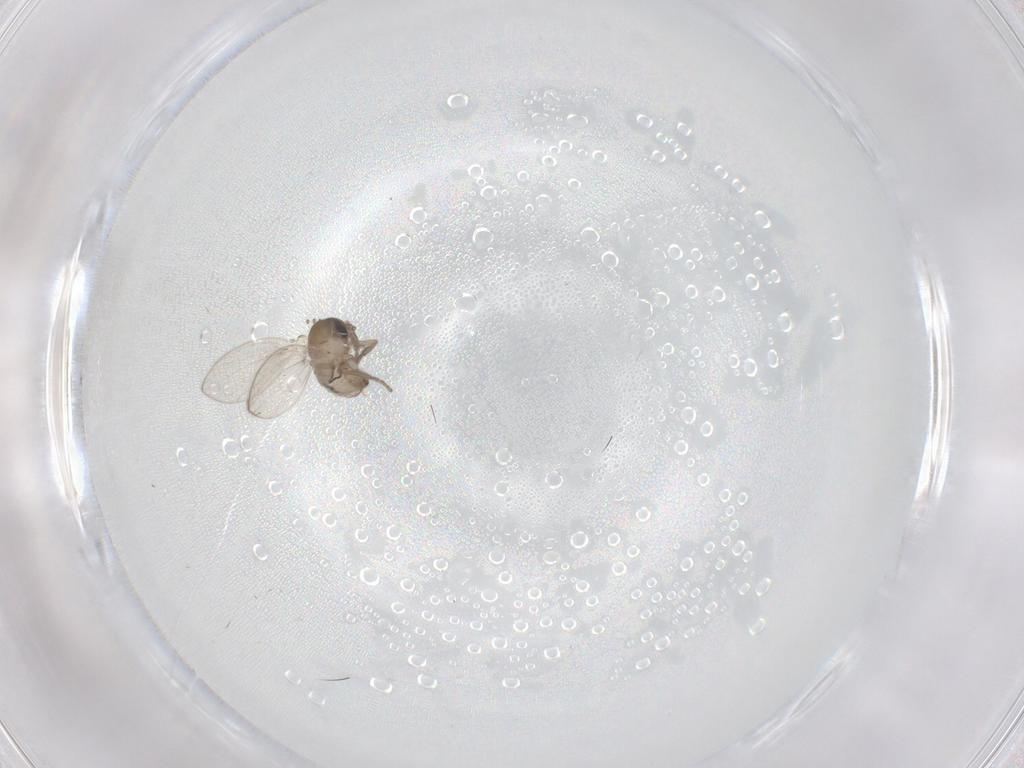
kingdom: Animalia
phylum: Arthropoda
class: Insecta
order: Diptera
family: Psychodidae
